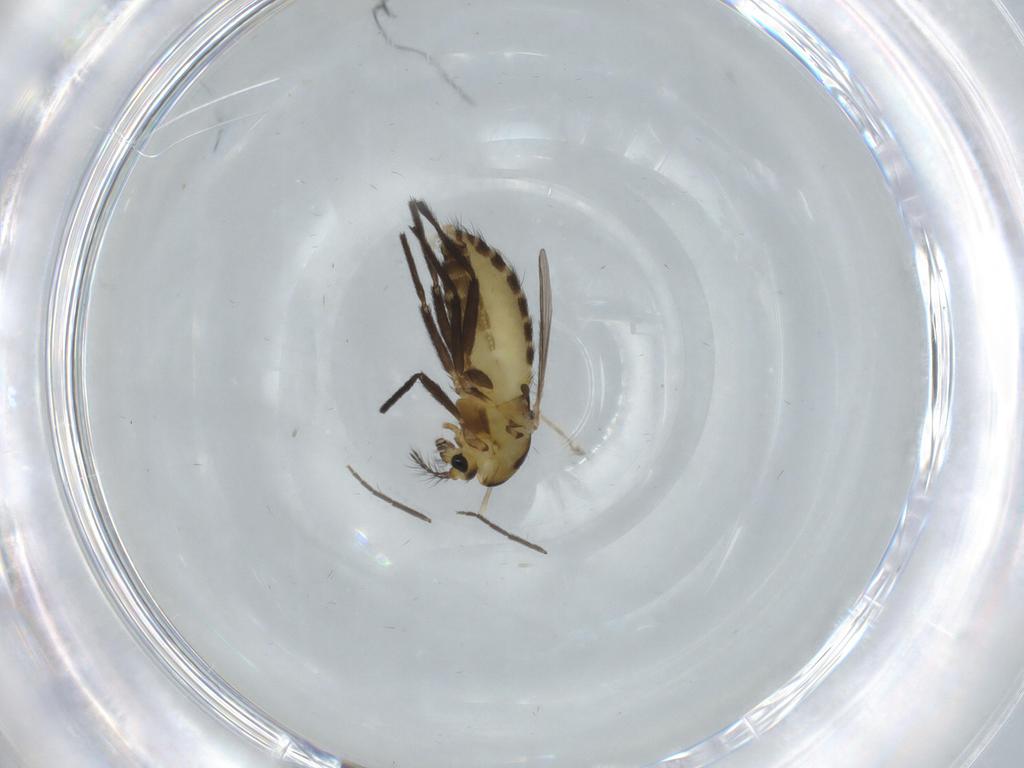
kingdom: Animalia
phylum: Arthropoda
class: Insecta
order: Diptera
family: Chironomidae
